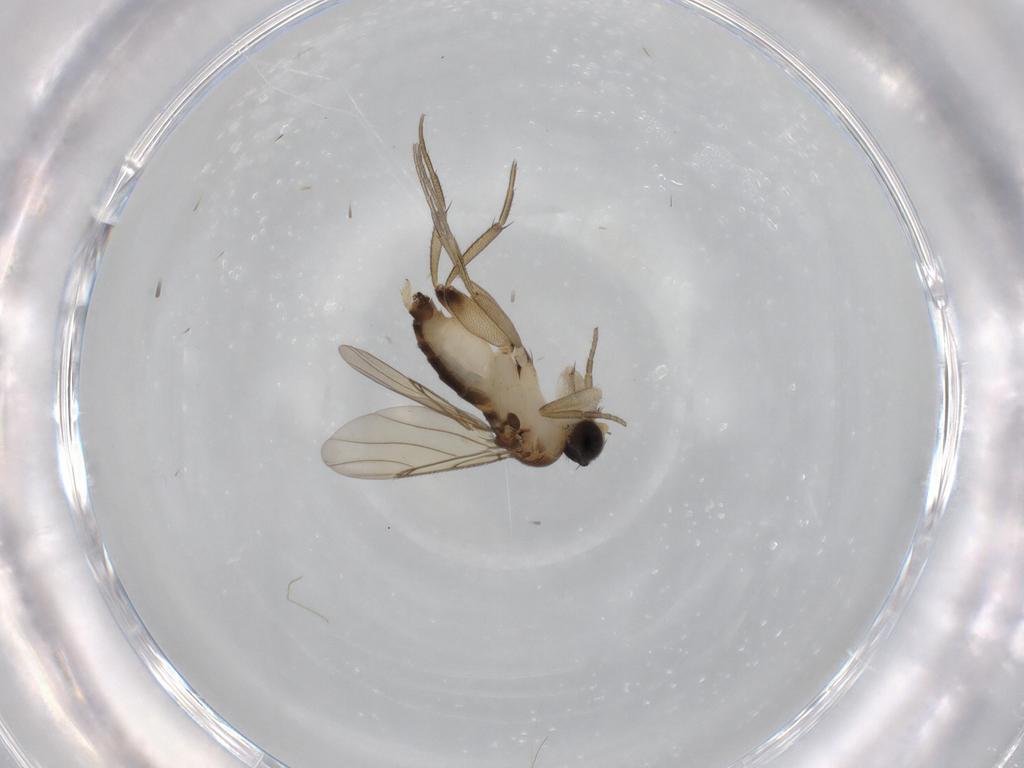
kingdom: Animalia
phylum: Arthropoda
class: Insecta
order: Diptera
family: Phoridae
